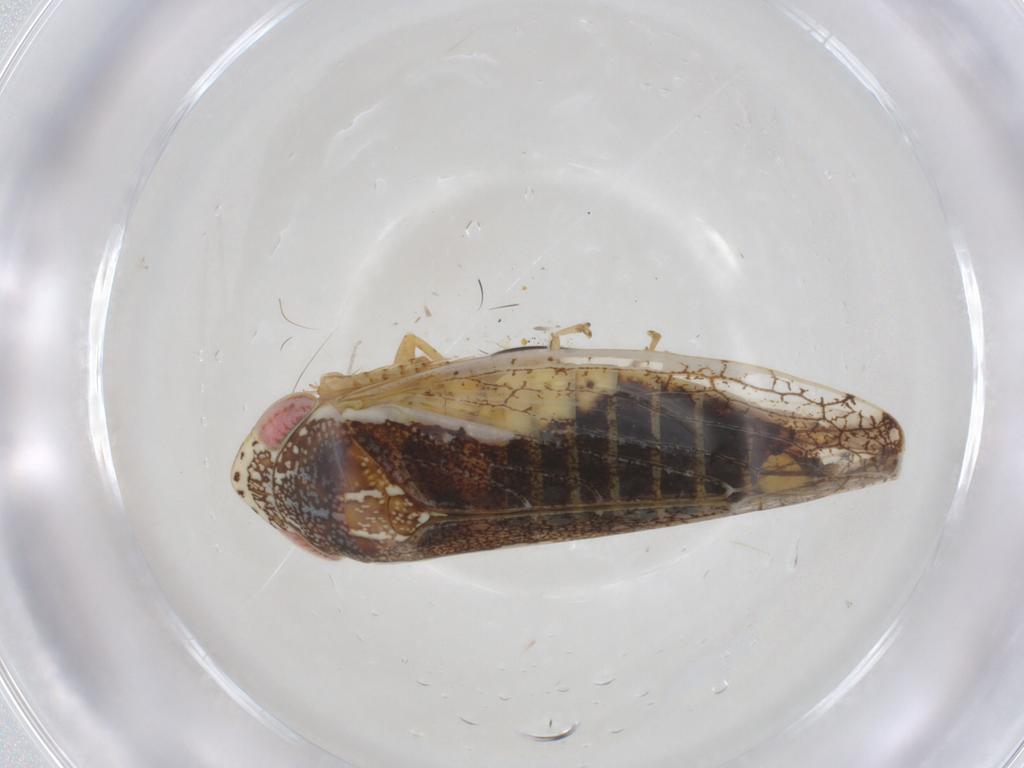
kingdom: Animalia
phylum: Arthropoda
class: Insecta
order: Hemiptera
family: Cicadellidae
